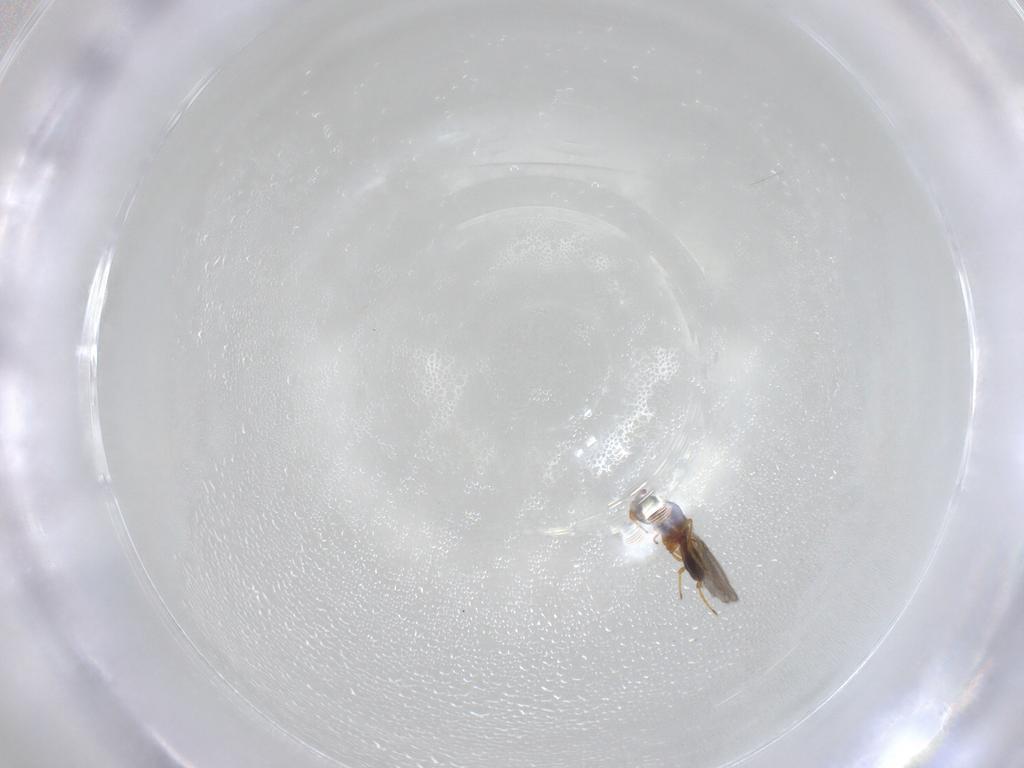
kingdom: Animalia
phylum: Arthropoda
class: Insecta
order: Hymenoptera
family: Diapriidae
